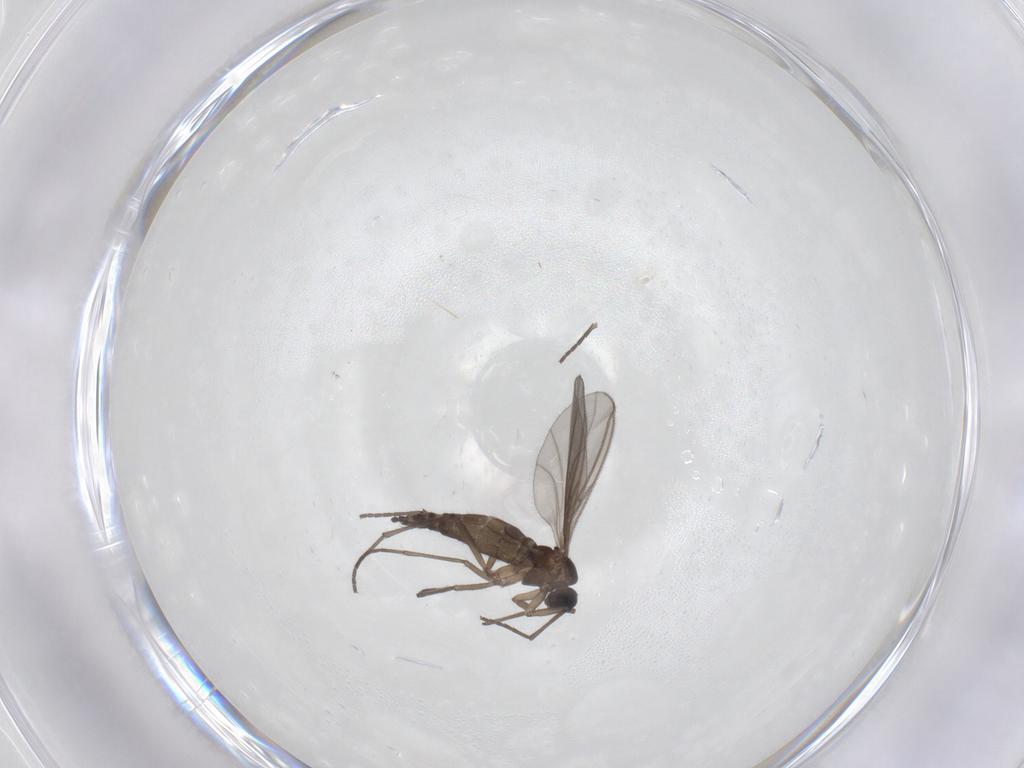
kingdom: Animalia
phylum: Arthropoda
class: Insecta
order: Diptera
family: Sciaridae
